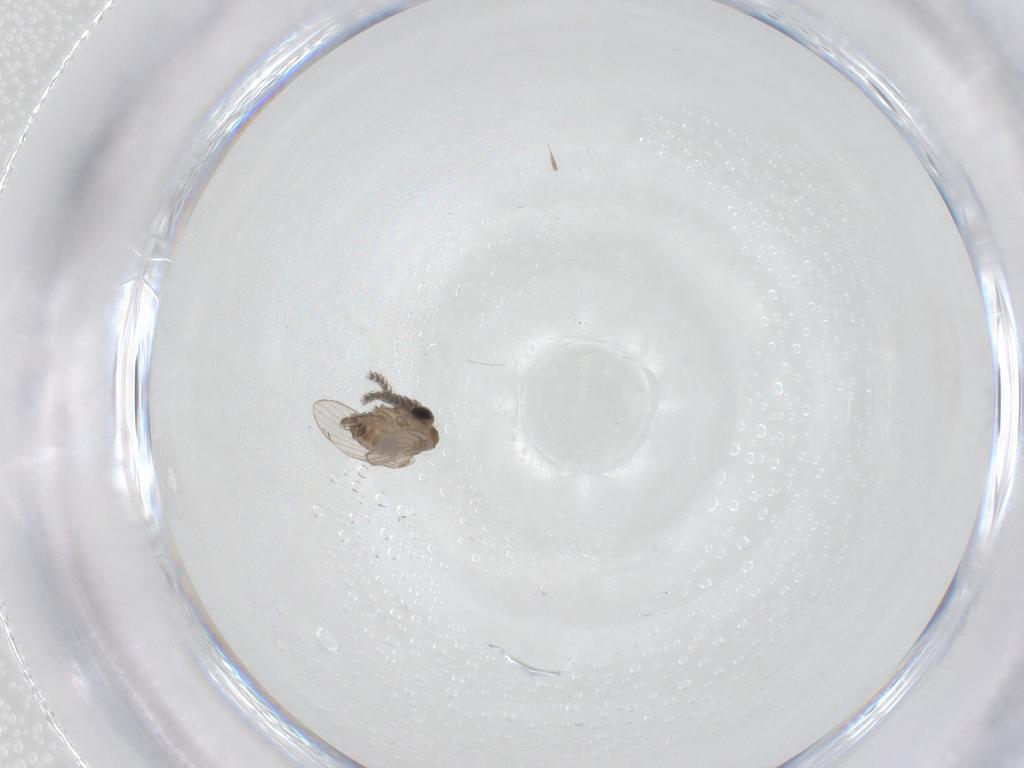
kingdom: Animalia
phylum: Arthropoda
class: Insecta
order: Diptera
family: Tipulidae
